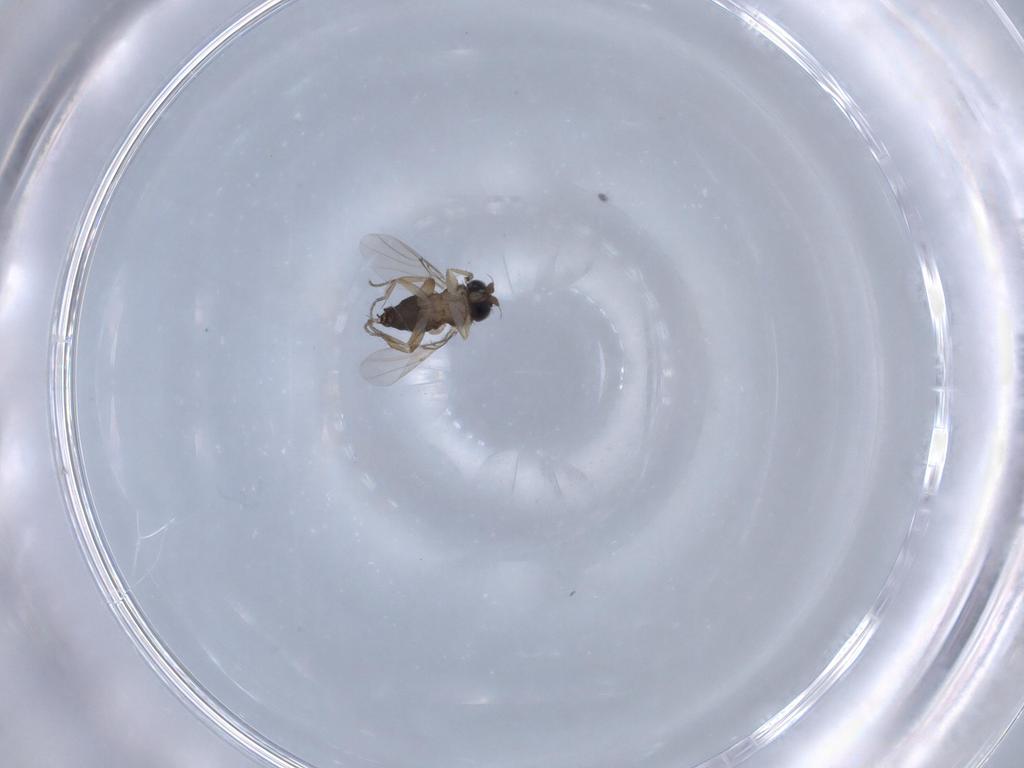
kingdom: Animalia
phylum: Arthropoda
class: Insecta
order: Diptera
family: Phoridae
